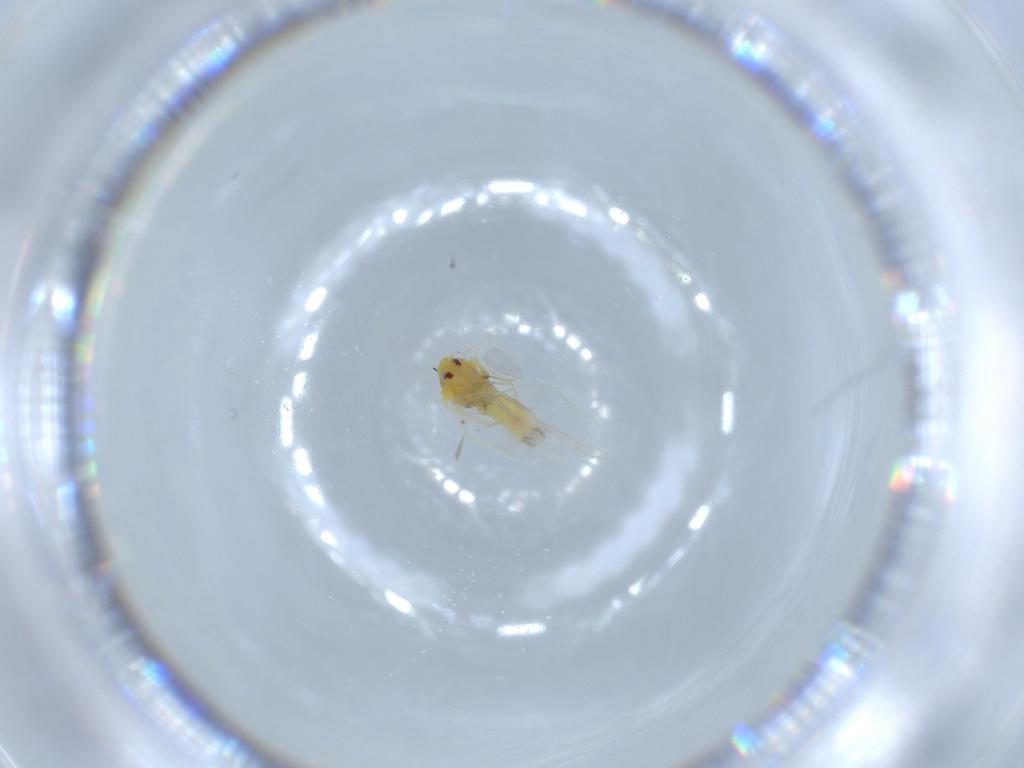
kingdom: Animalia
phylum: Arthropoda
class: Insecta
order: Hemiptera
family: Aleyrodidae
